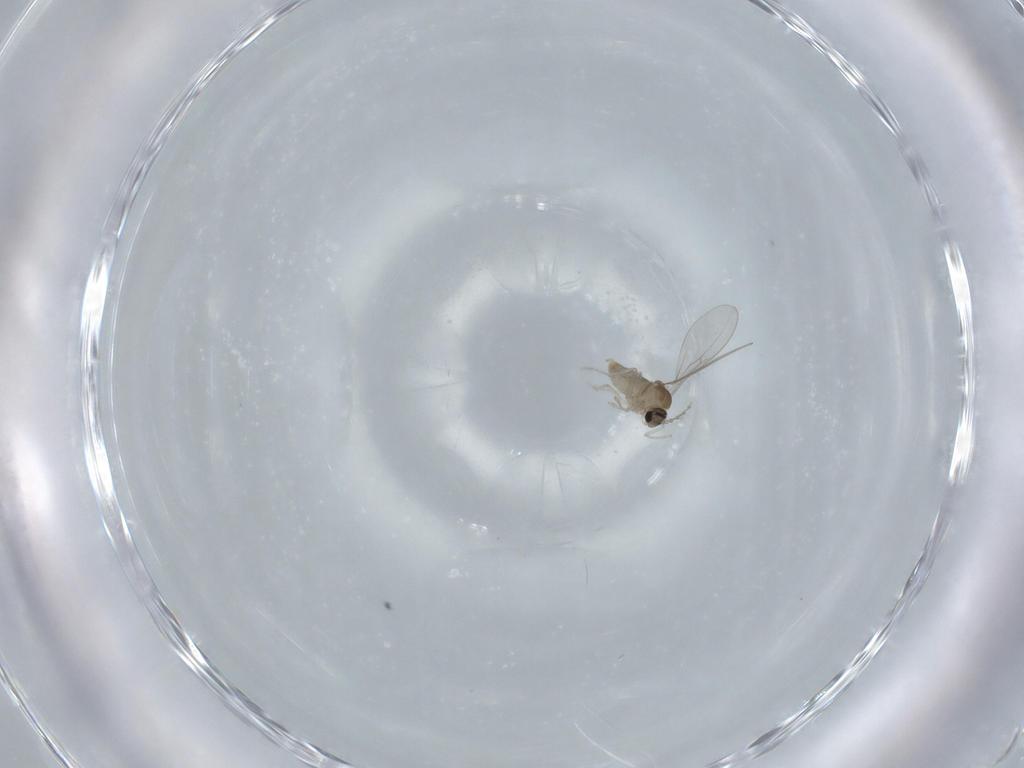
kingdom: Animalia
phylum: Arthropoda
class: Insecta
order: Diptera
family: Cecidomyiidae
